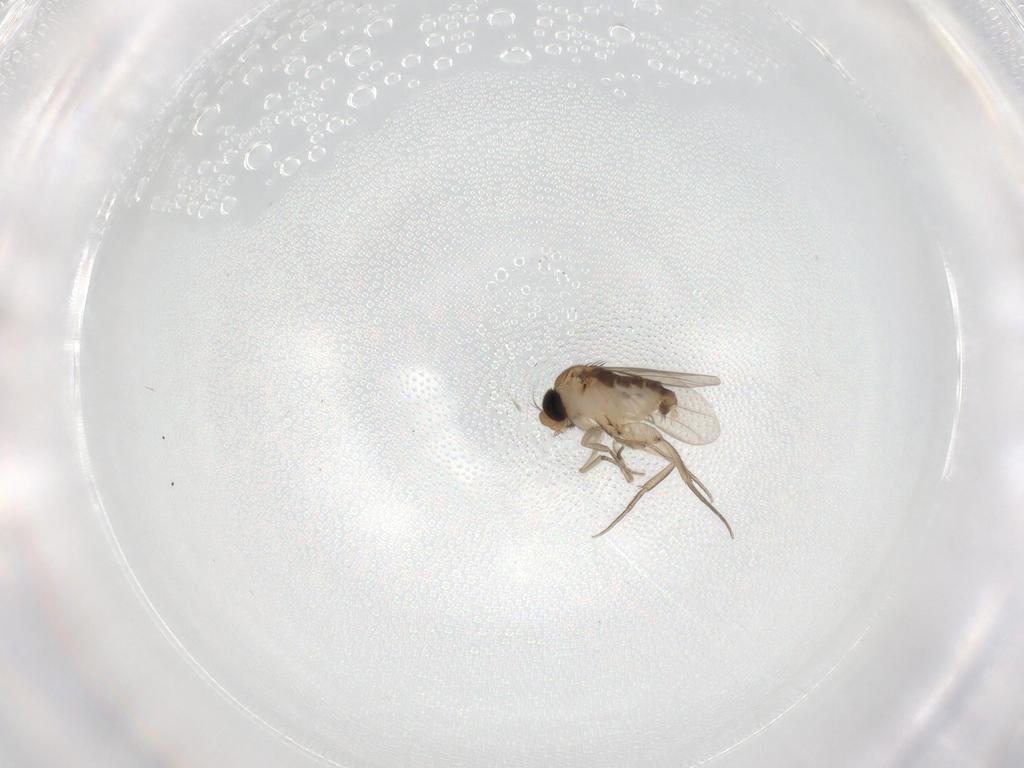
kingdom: Animalia
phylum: Arthropoda
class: Insecta
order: Diptera
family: Phoridae
